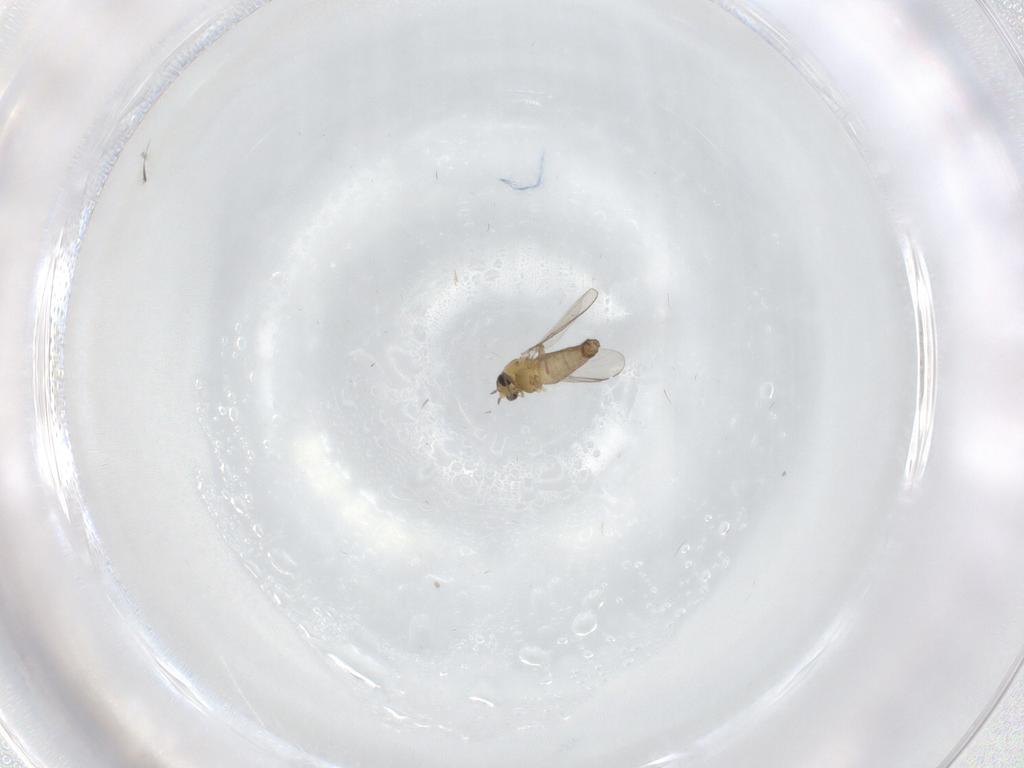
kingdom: Animalia
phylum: Arthropoda
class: Insecta
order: Diptera
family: Chironomidae
